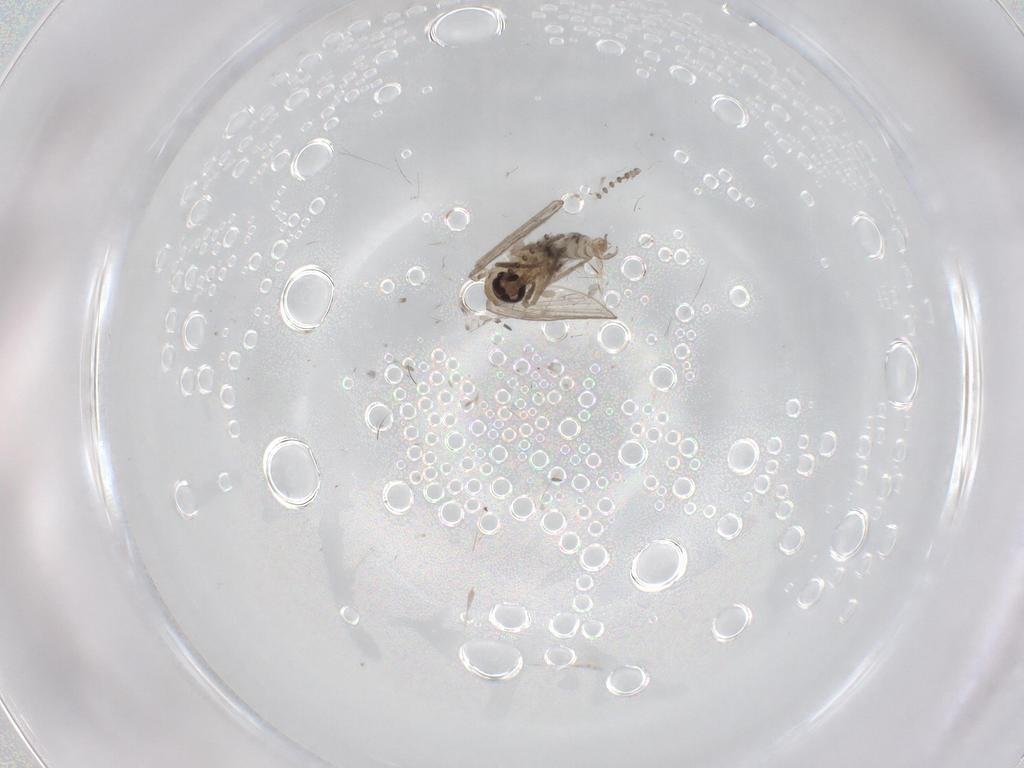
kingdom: Animalia
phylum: Arthropoda
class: Insecta
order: Diptera
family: Psychodidae
